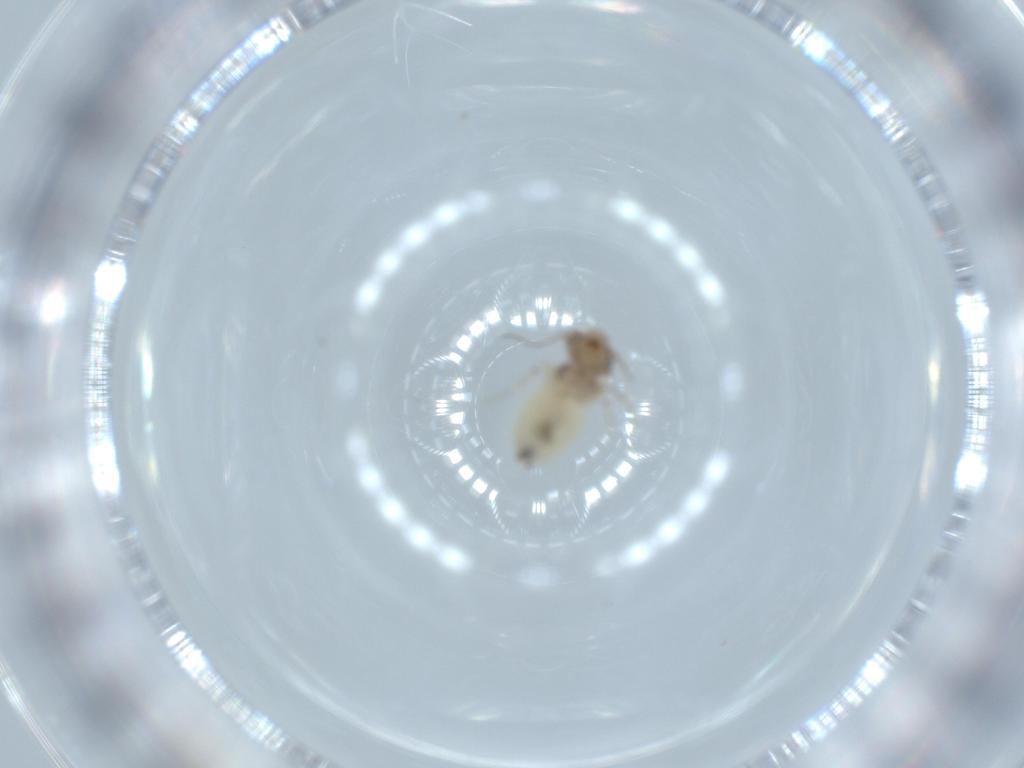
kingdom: Animalia
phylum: Arthropoda
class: Insecta
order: Psocodea
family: Lepidopsocidae
